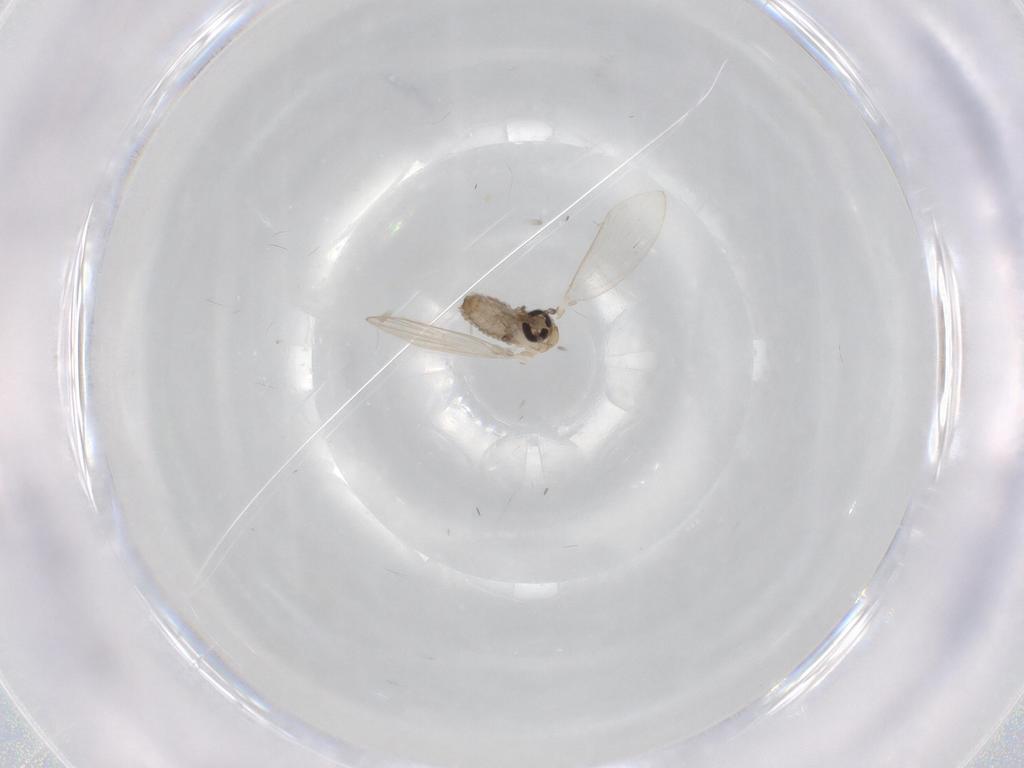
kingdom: Animalia
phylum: Arthropoda
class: Insecta
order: Diptera
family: Psychodidae
